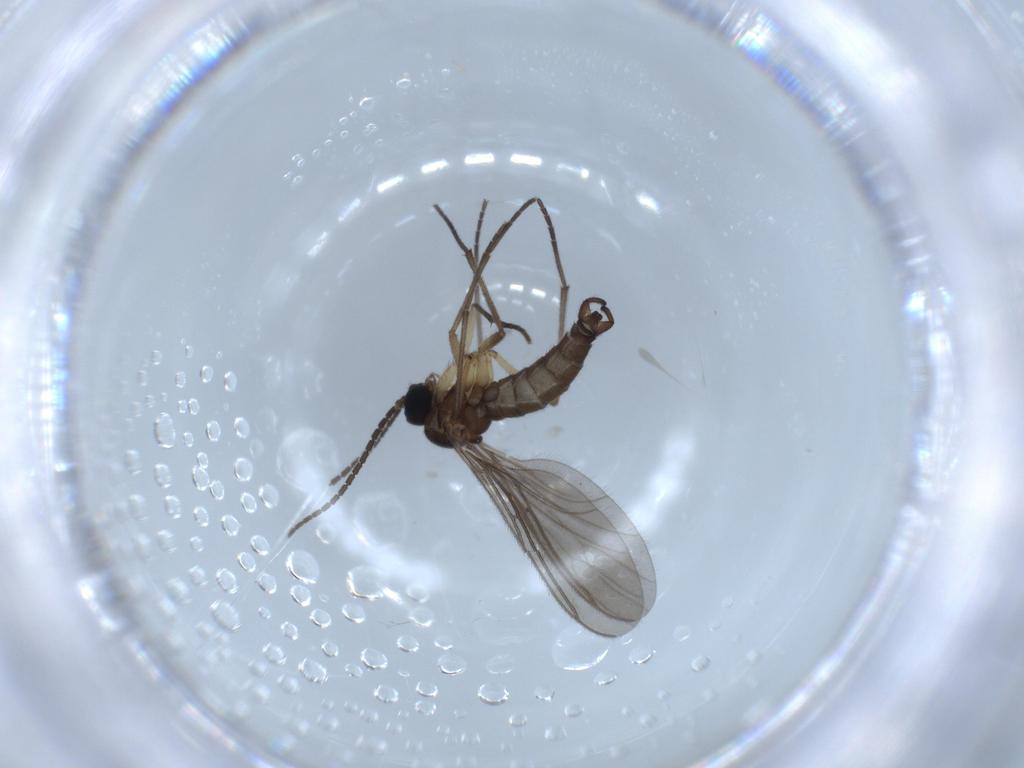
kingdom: Animalia
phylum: Arthropoda
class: Insecta
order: Diptera
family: Sciaridae
